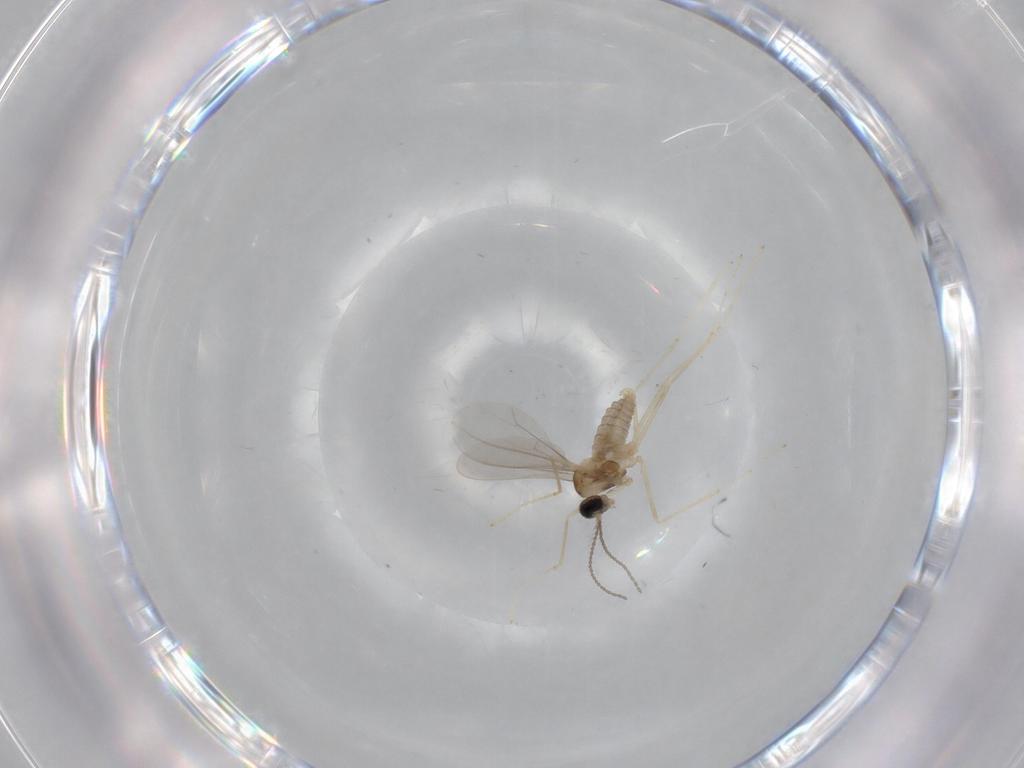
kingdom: Animalia
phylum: Arthropoda
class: Insecta
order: Diptera
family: Cecidomyiidae
